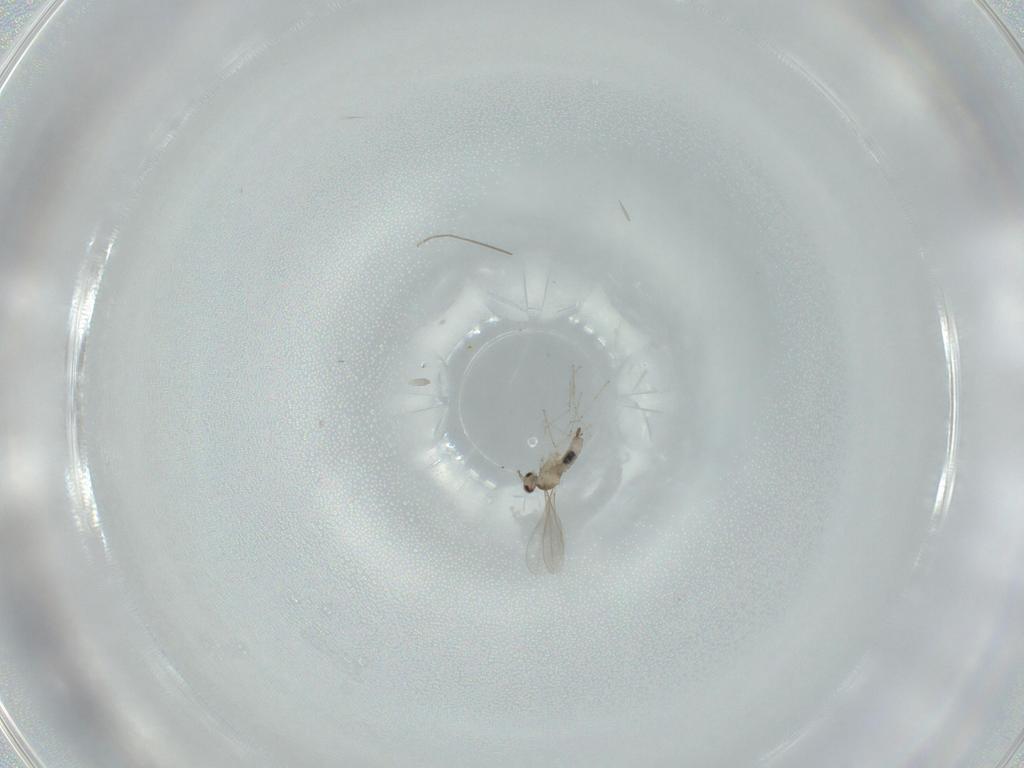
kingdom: Animalia
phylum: Arthropoda
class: Insecta
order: Diptera
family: Cecidomyiidae
